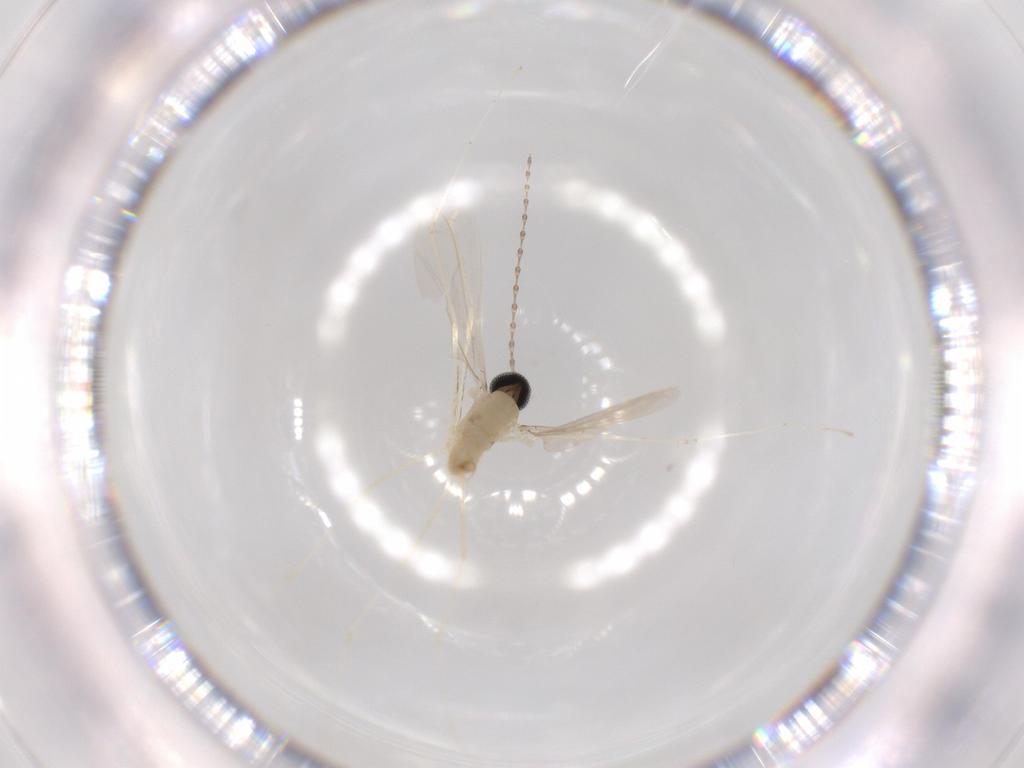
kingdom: Animalia
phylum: Arthropoda
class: Insecta
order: Diptera
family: Cecidomyiidae
